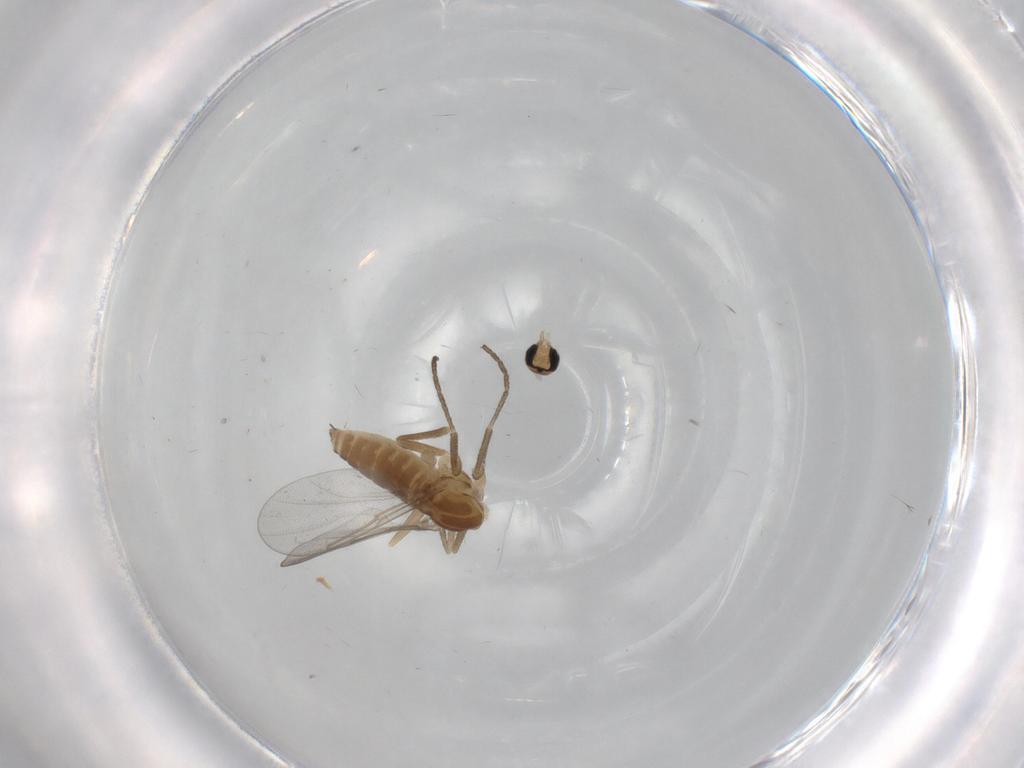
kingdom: Animalia
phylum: Arthropoda
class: Insecta
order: Diptera
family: Cecidomyiidae
